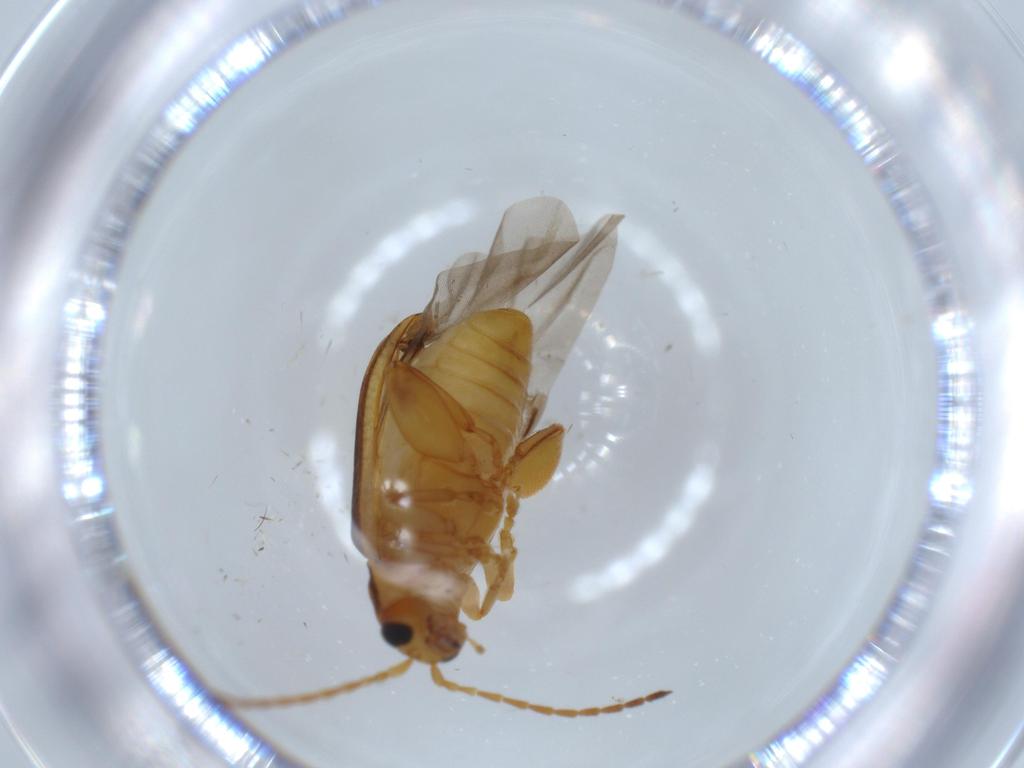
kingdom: Animalia
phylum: Arthropoda
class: Insecta
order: Coleoptera
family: Chrysomelidae
